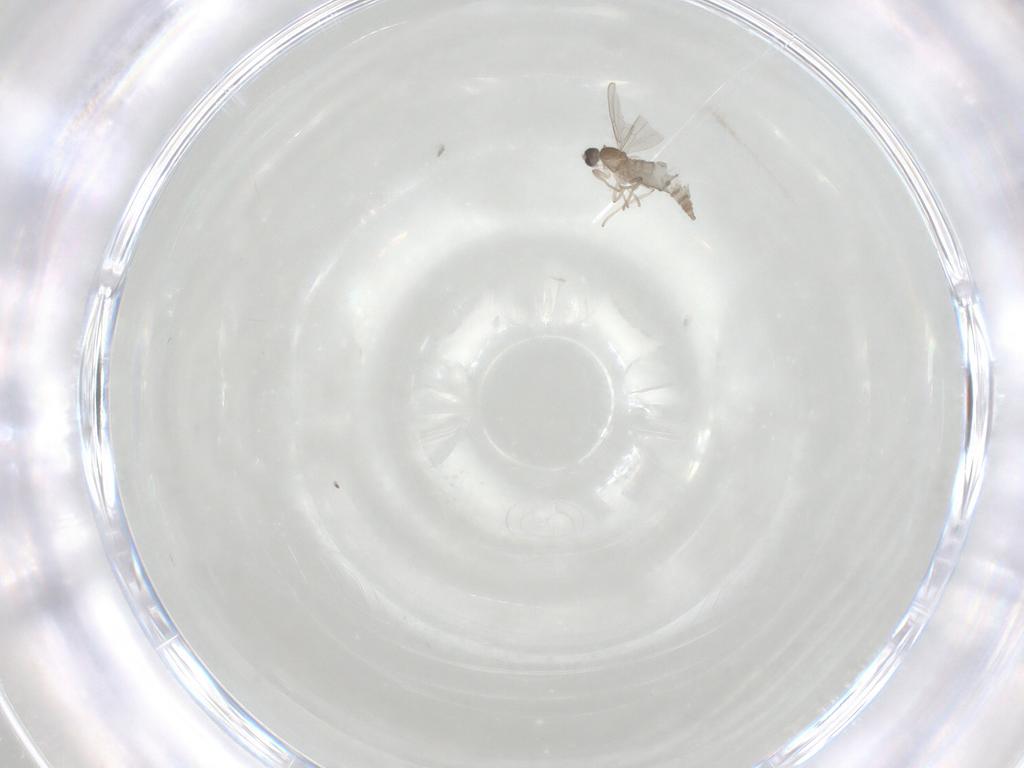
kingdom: Animalia
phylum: Arthropoda
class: Insecta
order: Diptera
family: Cecidomyiidae
